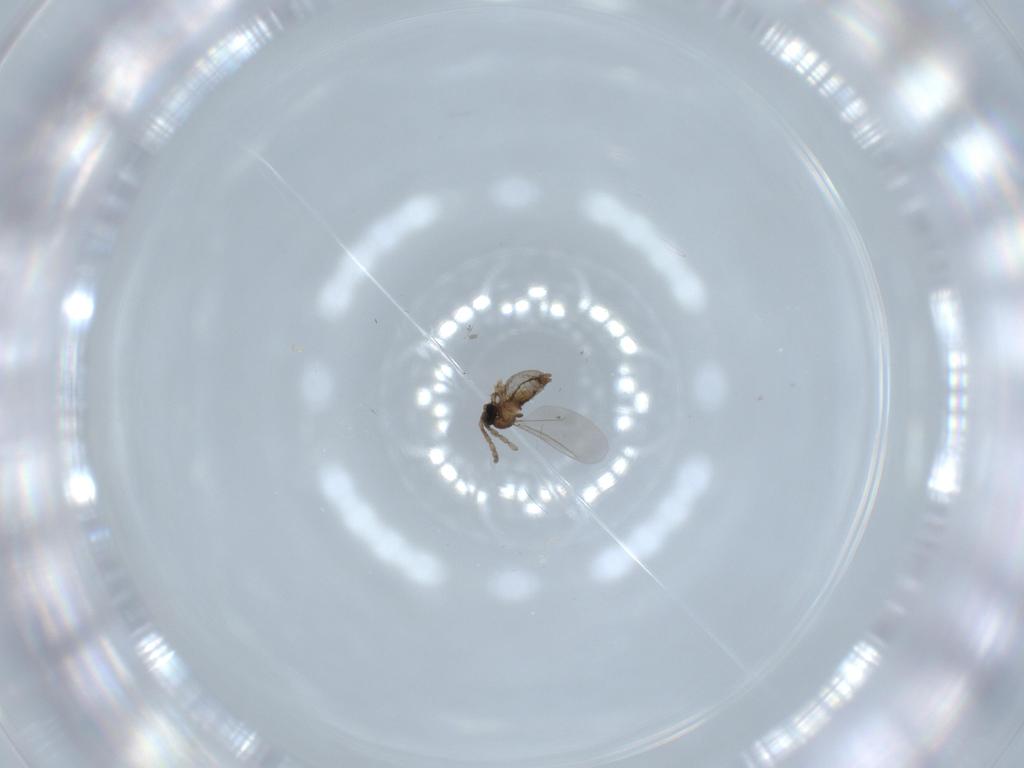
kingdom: Animalia
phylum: Arthropoda
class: Insecta
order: Diptera
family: Cecidomyiidae
